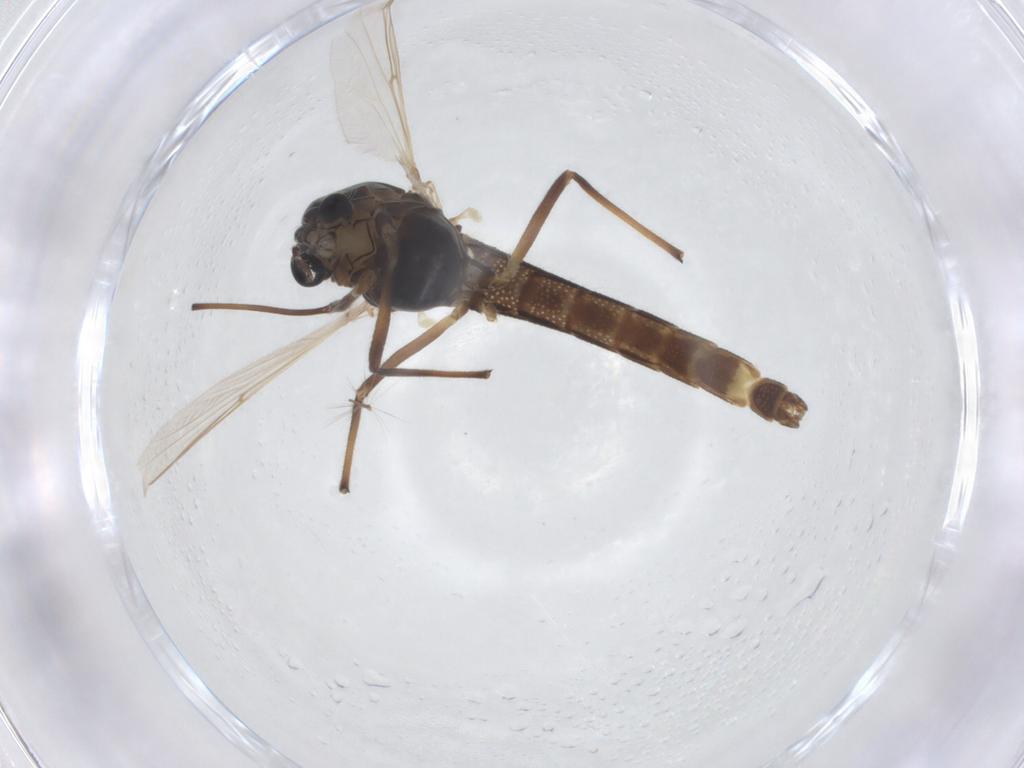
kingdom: Animalia
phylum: Arthropoda
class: Insecta
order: Diptera
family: Chironomidae
